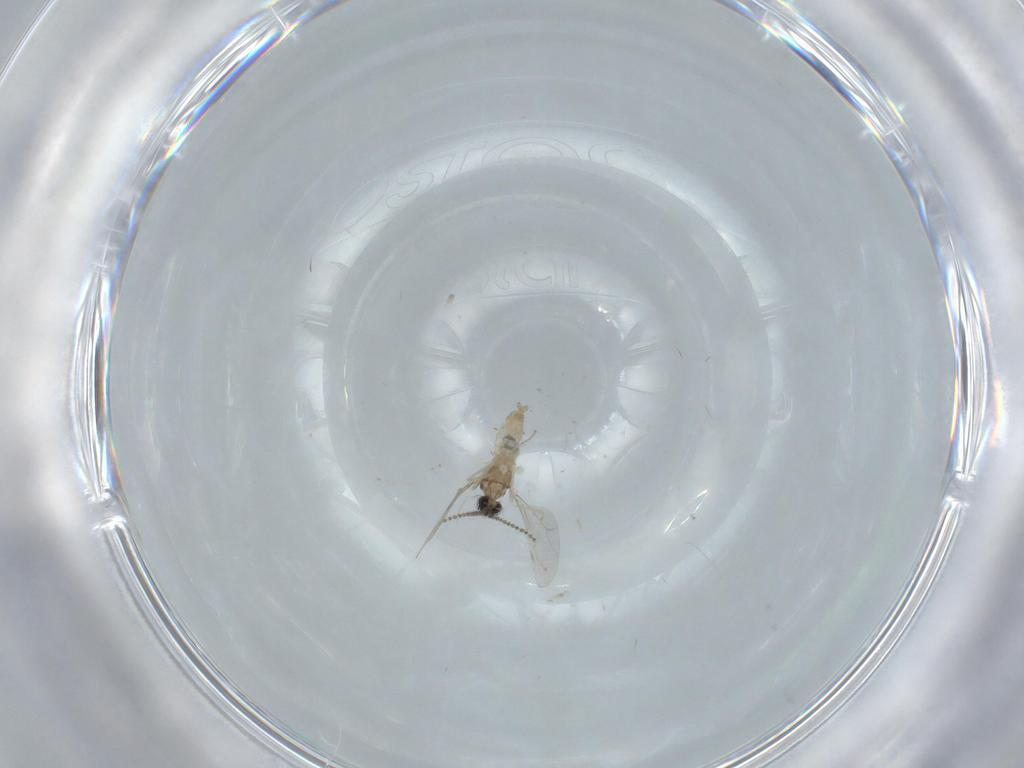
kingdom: Animalia
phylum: Arthropoda
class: Insecta
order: Diptera
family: Cecidomyiidae
